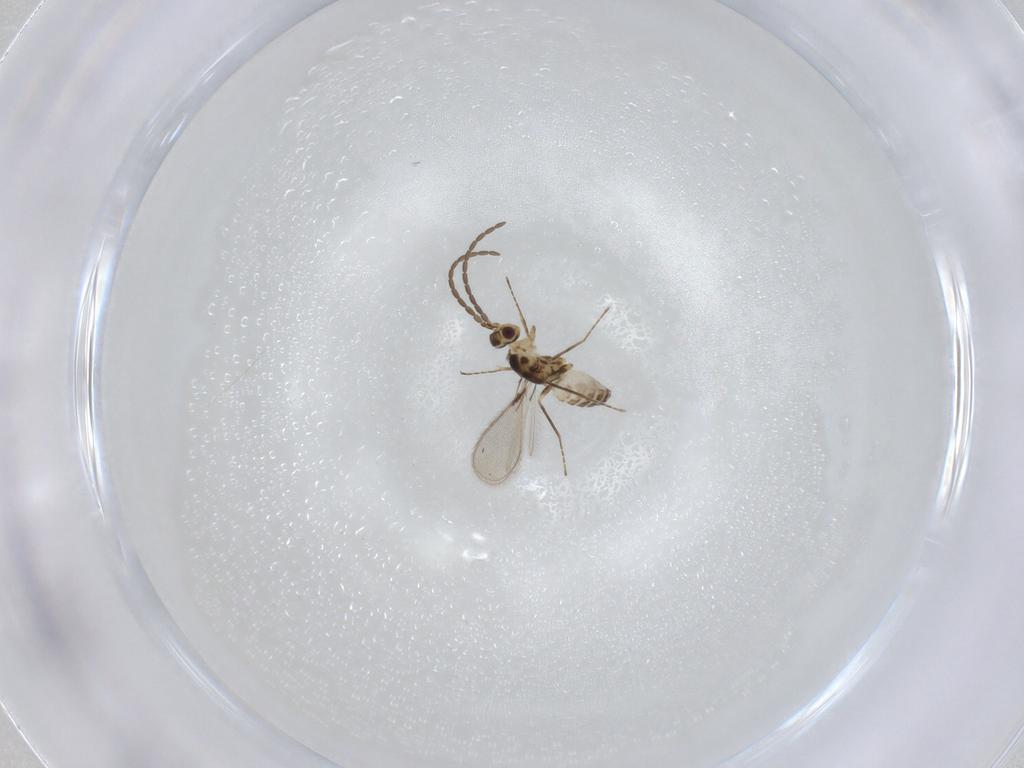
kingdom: Animalia
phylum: Arthropoda
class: Insecta
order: Hymenoptera
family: Mymaridae
